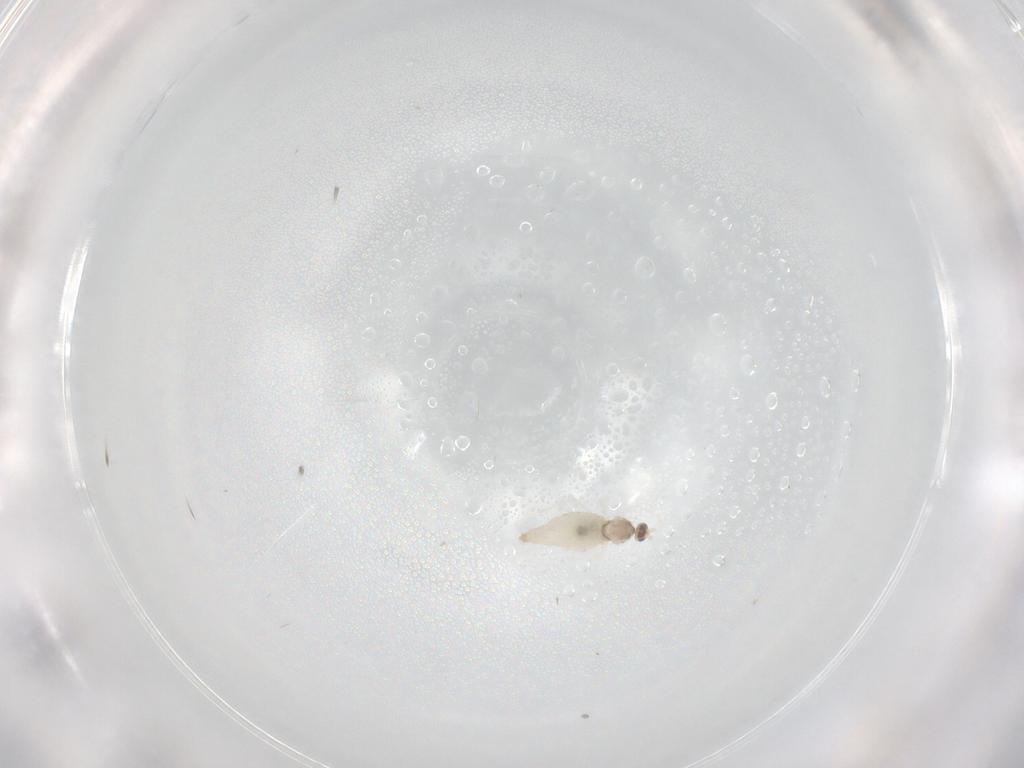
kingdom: Animalia
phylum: Arthropoda
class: Insecta
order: Diptera
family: Cecidomyiidae
